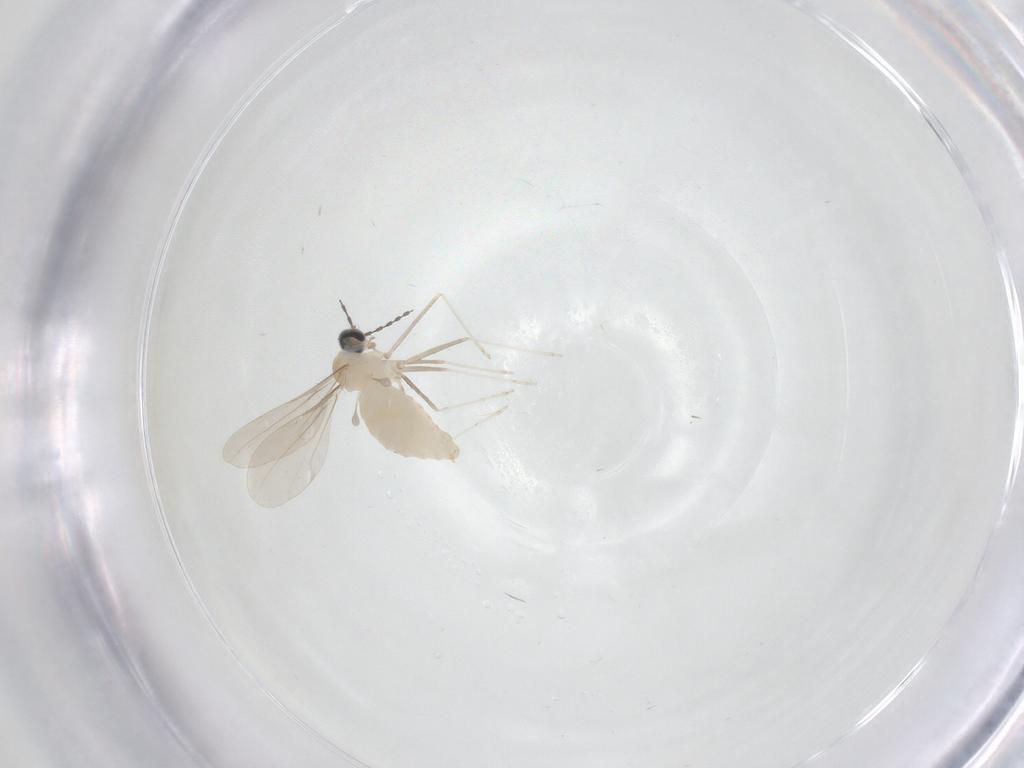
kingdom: Animalia
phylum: Arthropoda
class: Insecta
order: Diptera
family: Cecidomyiidae
